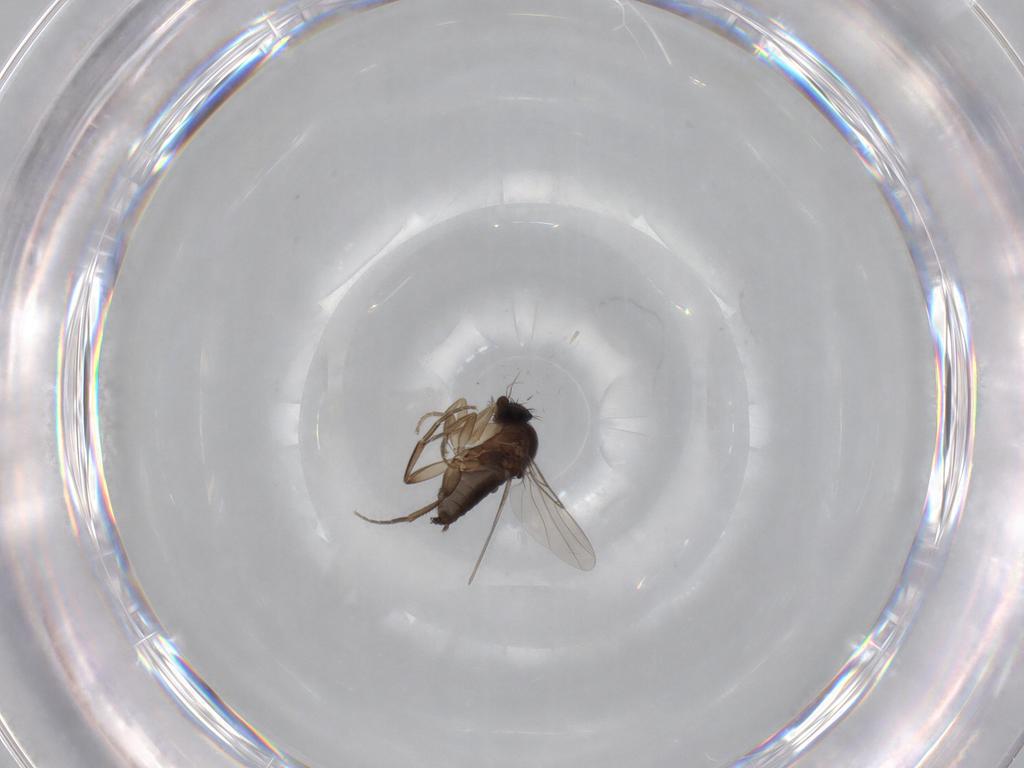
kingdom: Animalia
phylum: Arthropoda
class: Insecta
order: Diptera
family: Phoridae
